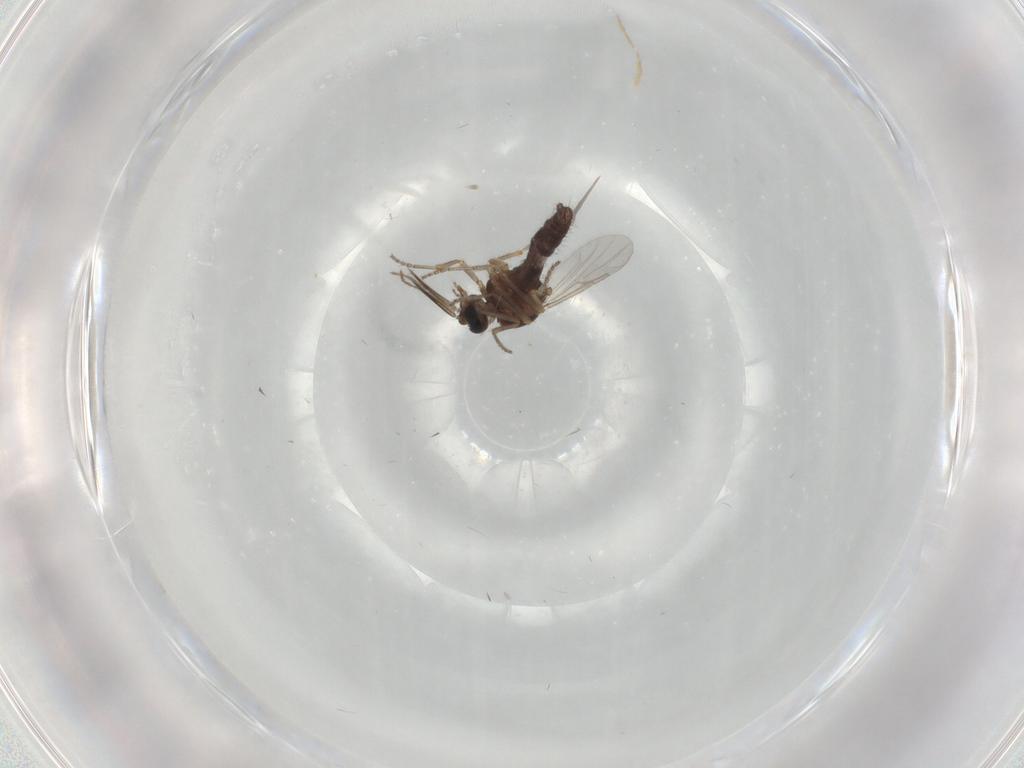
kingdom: Animalia
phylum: Arthropoda
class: Insecta
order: Diptera
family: Ceratopogonidae
